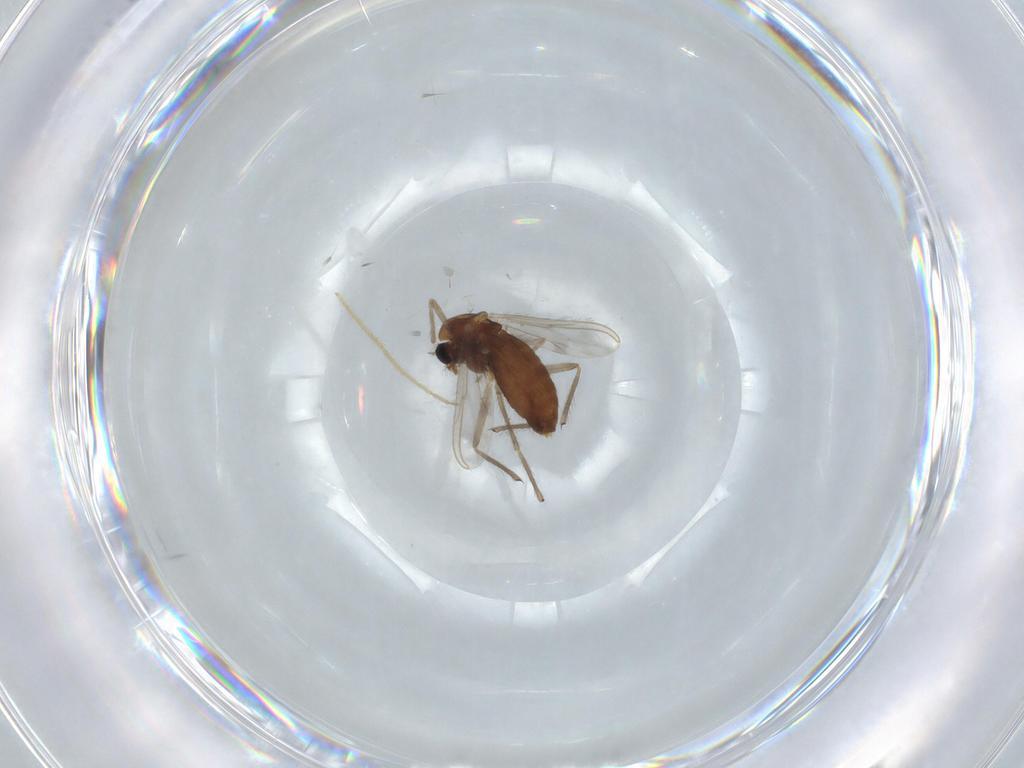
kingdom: Animalia
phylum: Arthropoda
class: Insecta
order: Diptera
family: Chironomidae
